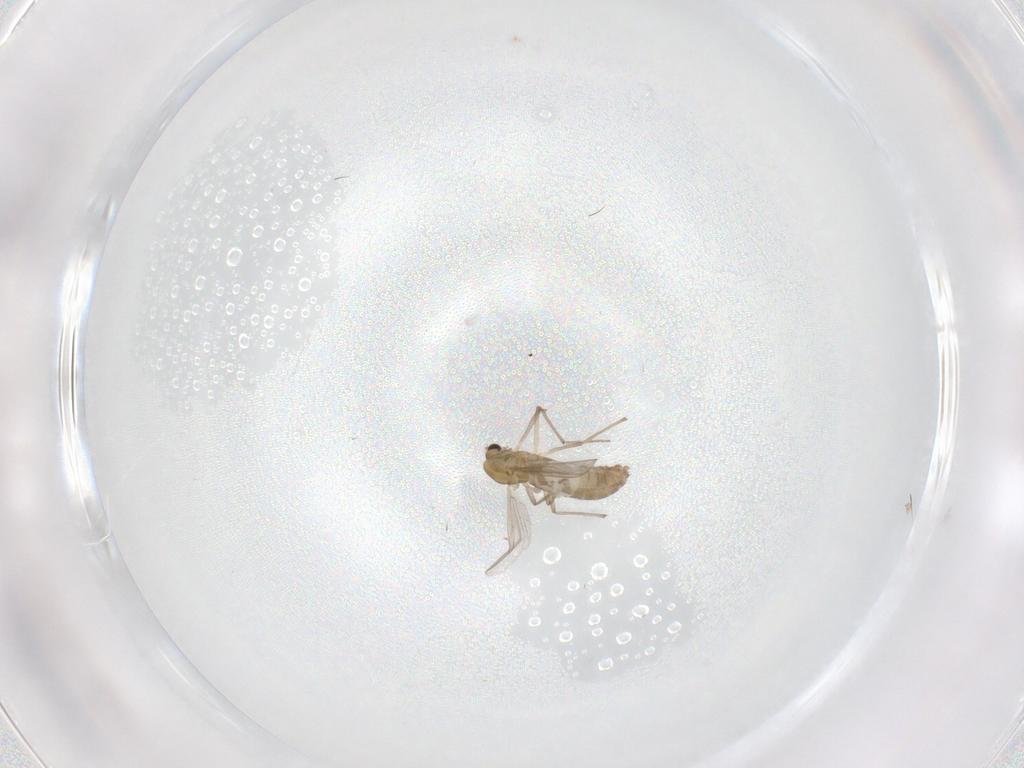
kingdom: Animalia
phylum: Arthropoda
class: Insecta
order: Diptera
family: Chironomidae
